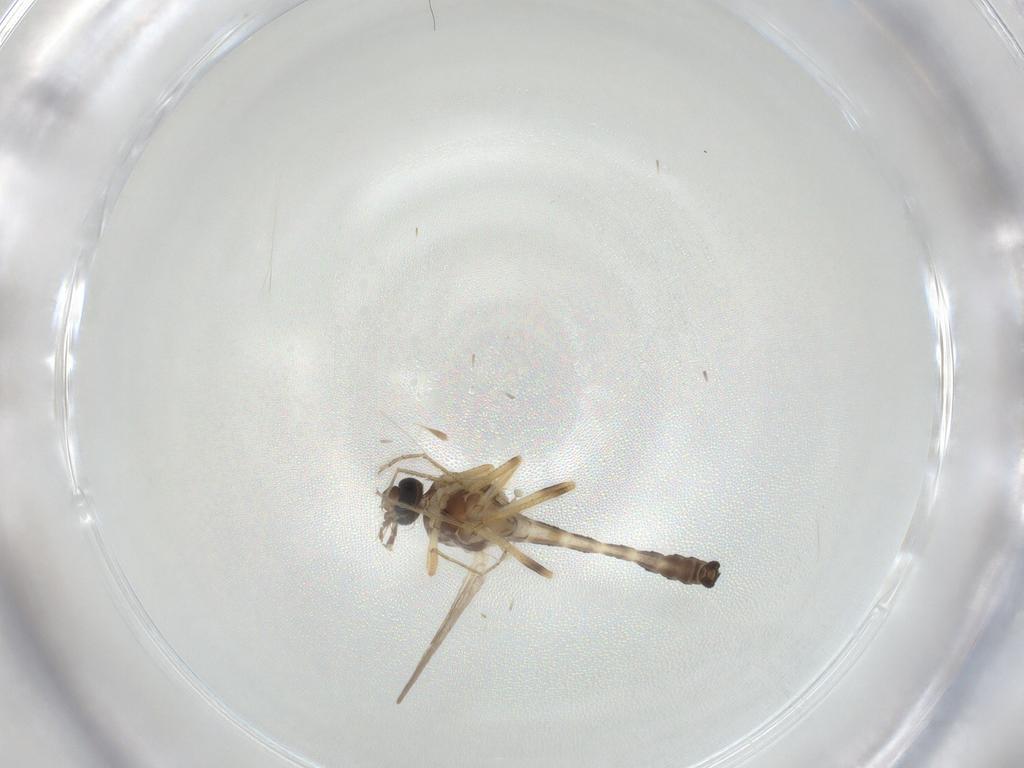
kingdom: Animalia
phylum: Arthropoda
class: Insecta
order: Diptera
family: Ceratopogonidae
